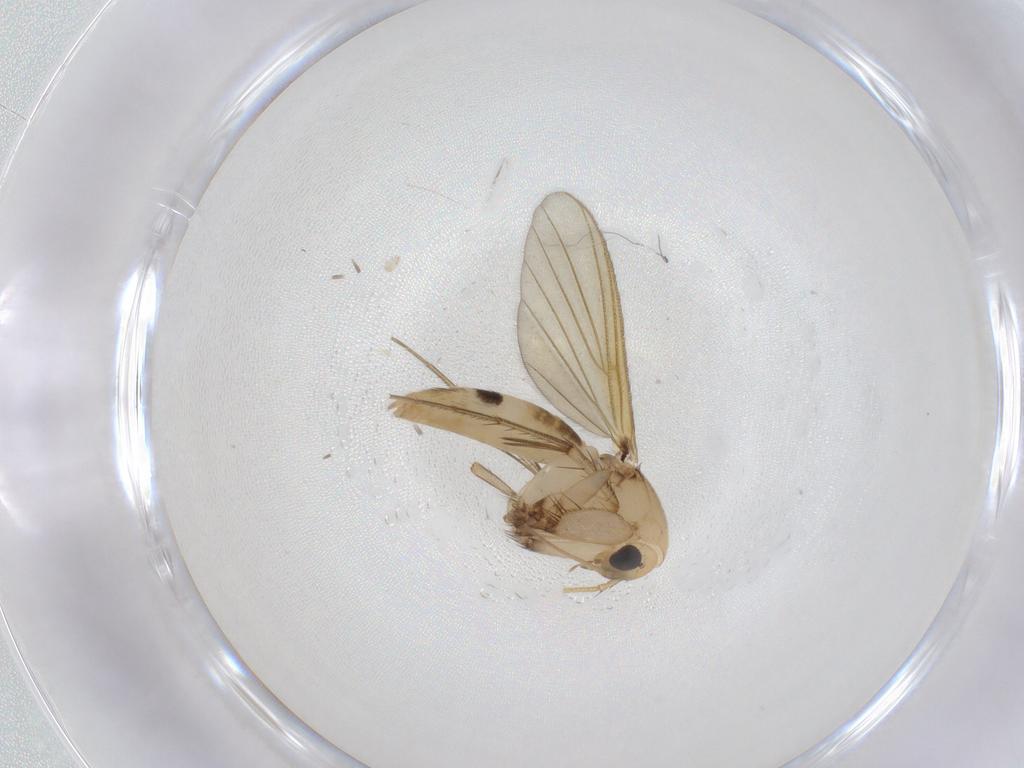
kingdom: Animalia
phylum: Arthropoda
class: Insecta
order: Diptera
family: Mycetophilidae
